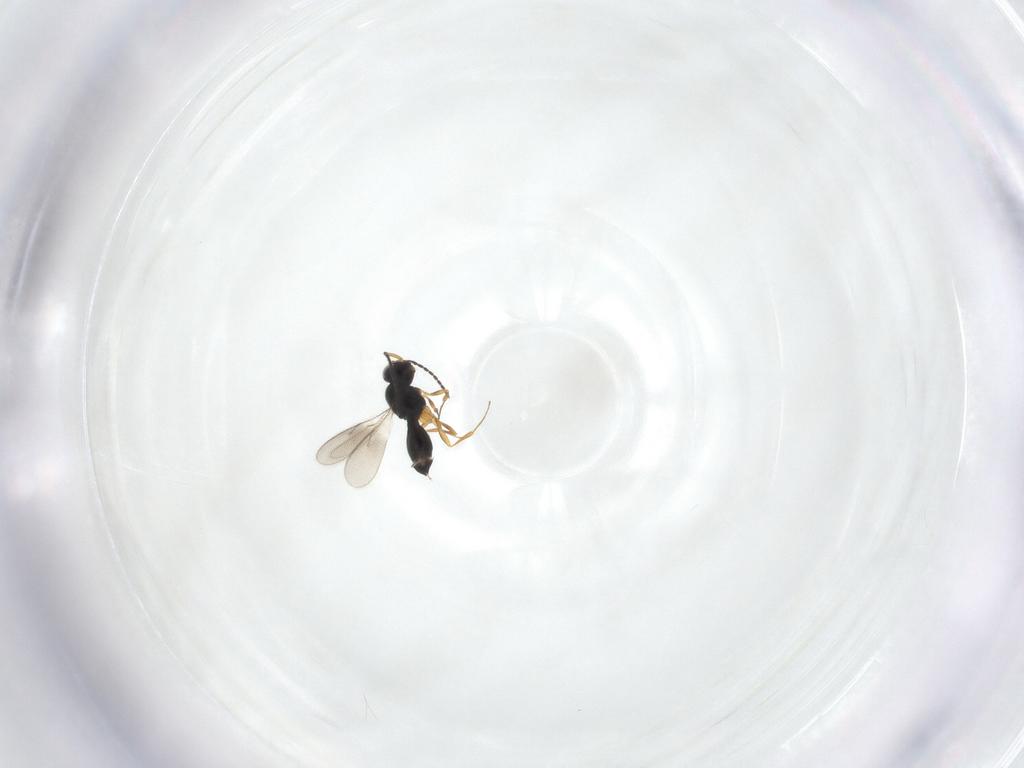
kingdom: Animalia
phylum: Arthropoda
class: Insecta
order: Hymenoptera
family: Scelionidae
